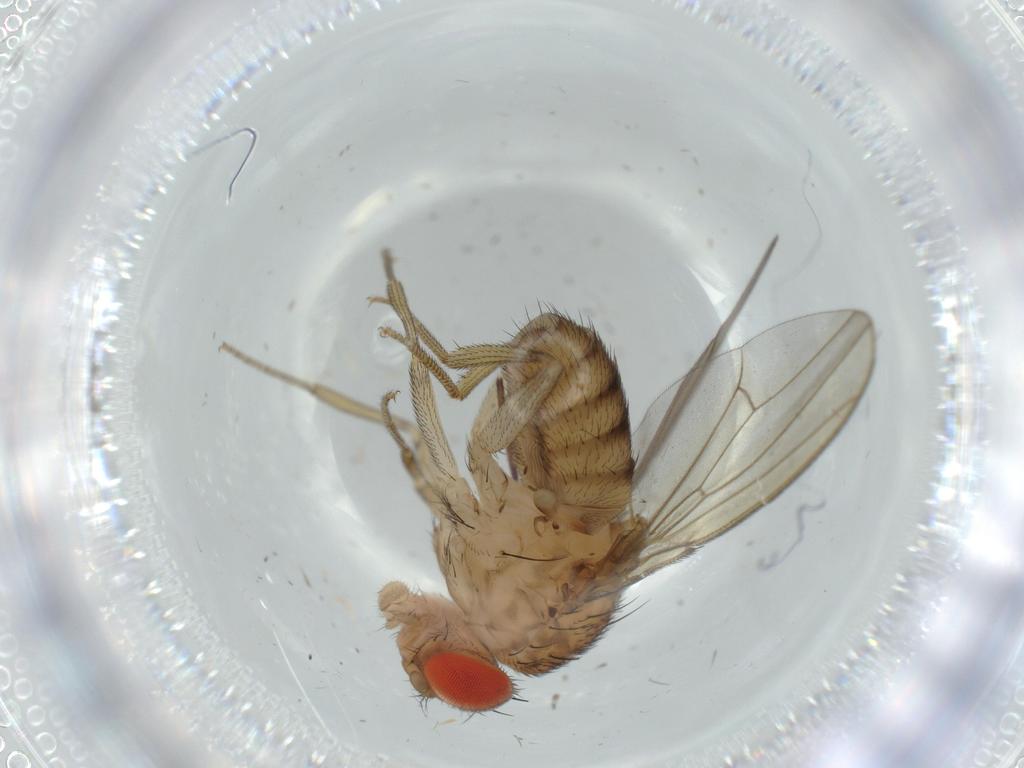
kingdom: Animalia
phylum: Arthropoda
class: Insecta
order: Diptera
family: Drosophilidae
